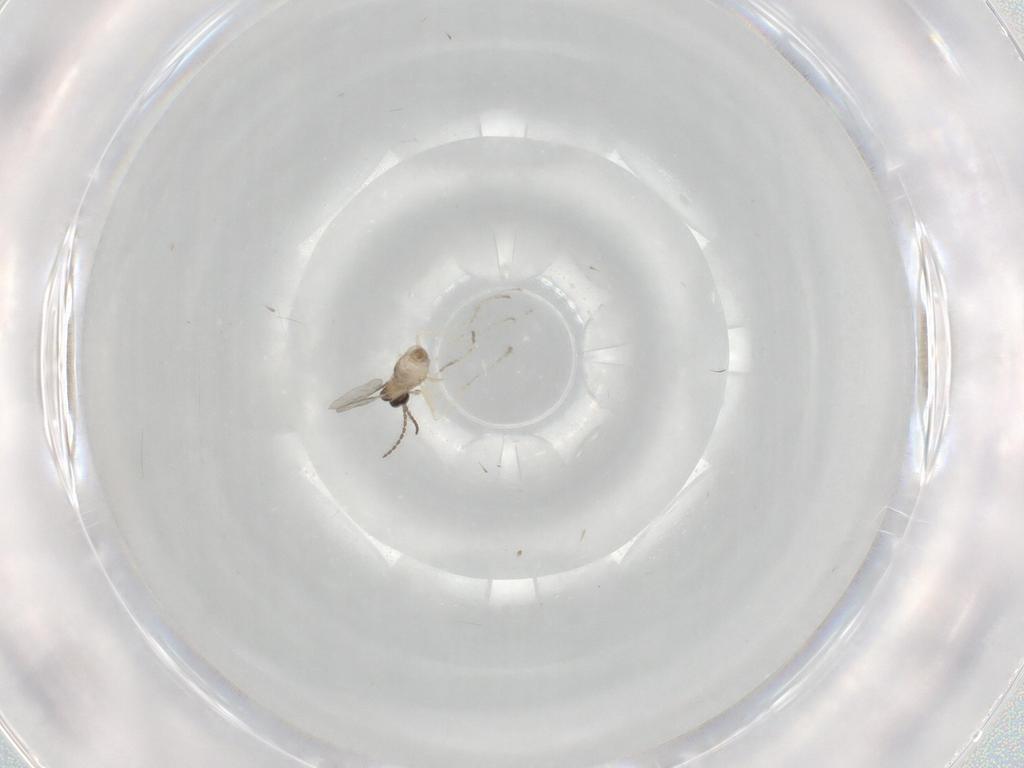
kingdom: Animalia
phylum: Arthropoda
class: Insecta
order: Diptera
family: Cecidomyiidae
